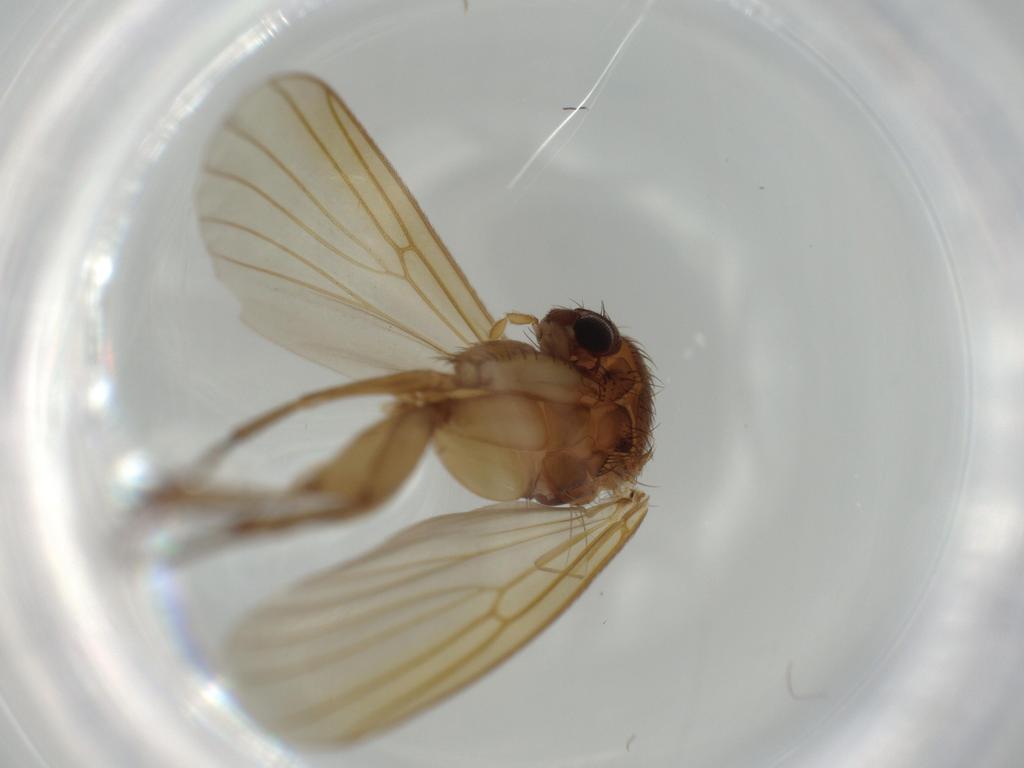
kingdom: Animalia
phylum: Arthropoda
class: Insecta
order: Diptera
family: Mycetophilidae
